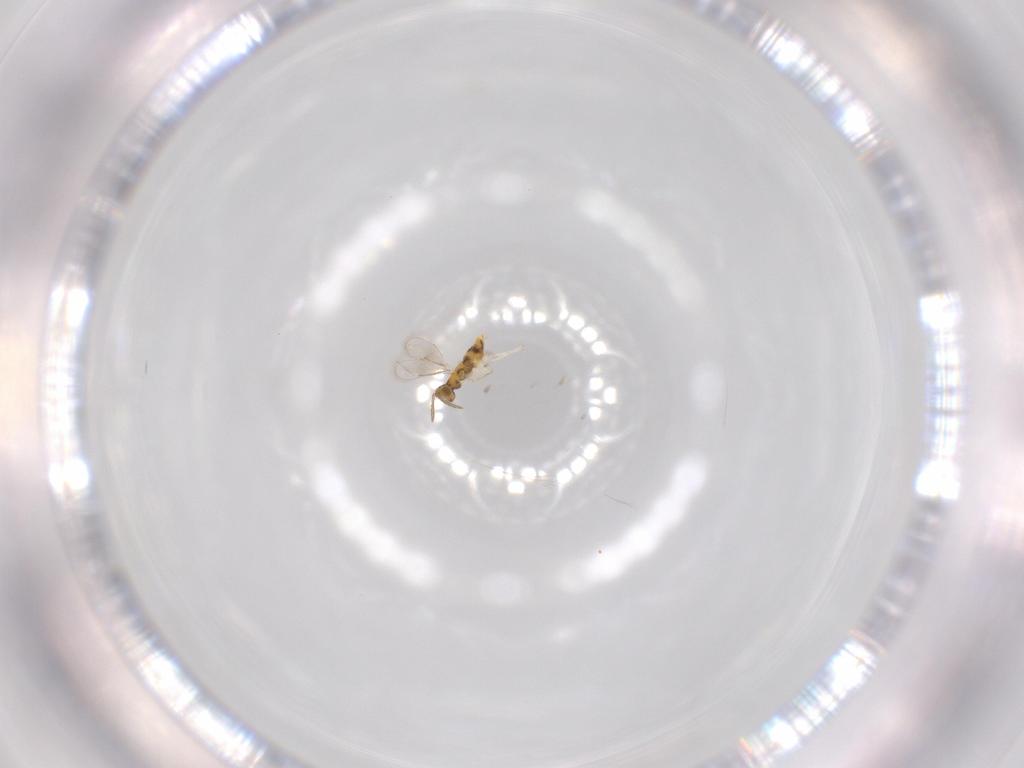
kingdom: Animalia
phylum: Arthropoda
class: Insecta
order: Hymenoptera
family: Aphelinidae
